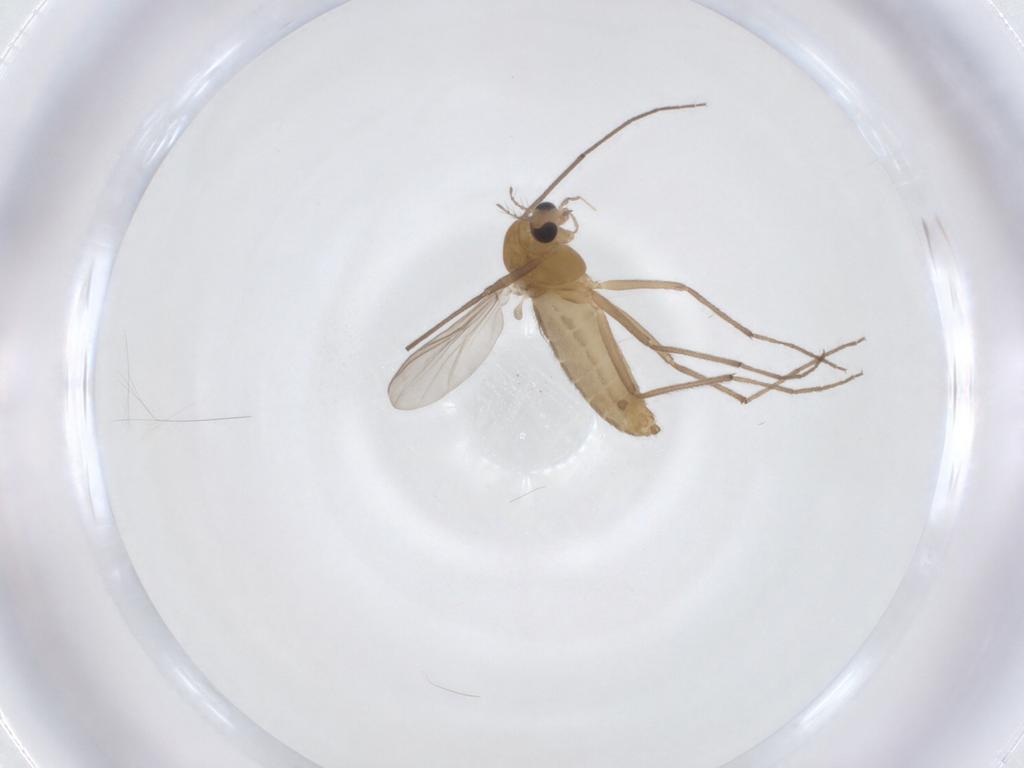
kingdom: Animalia
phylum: Arthropoda
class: Insecta
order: Diptera
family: Chironomidae
